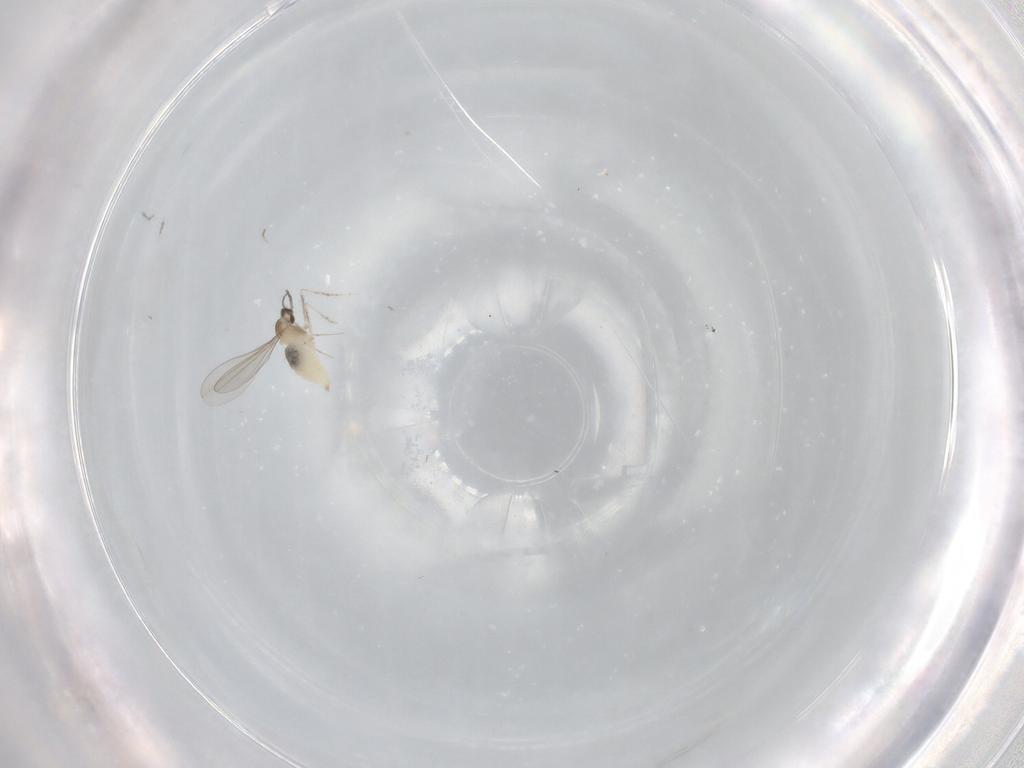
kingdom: Animalia
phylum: Arthropoda
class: Insecta
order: Diptera
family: Cecidomyiidae
